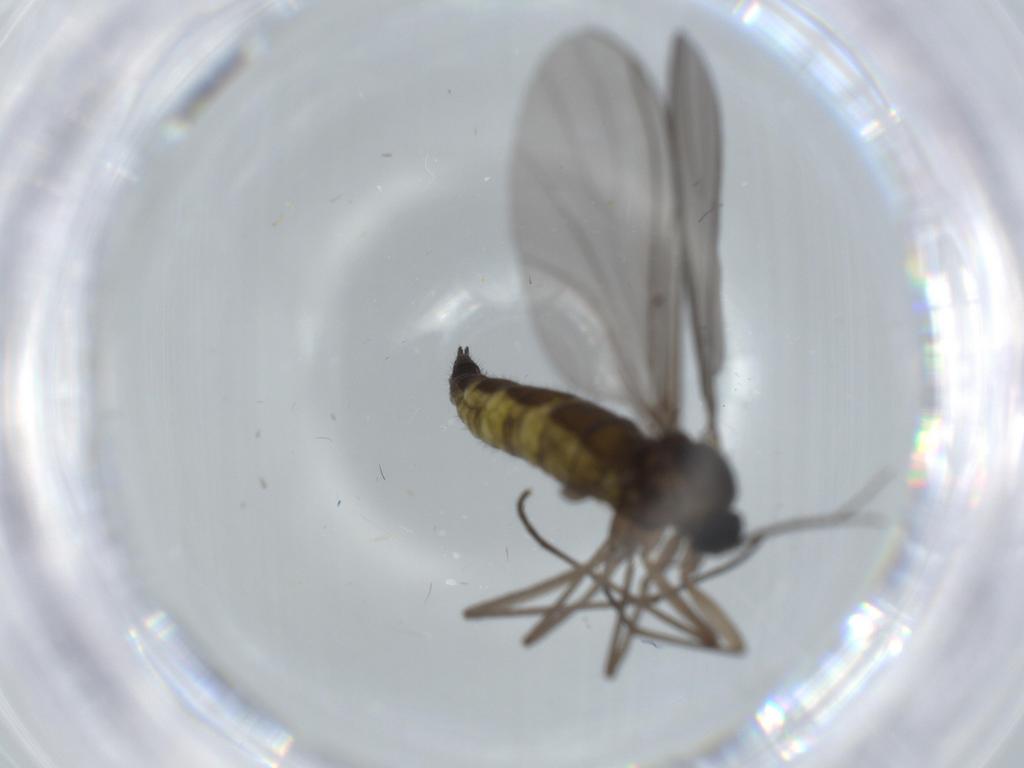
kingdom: Animalia
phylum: Arthropoda
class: Insecta
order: Diptera
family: Sciaridae
